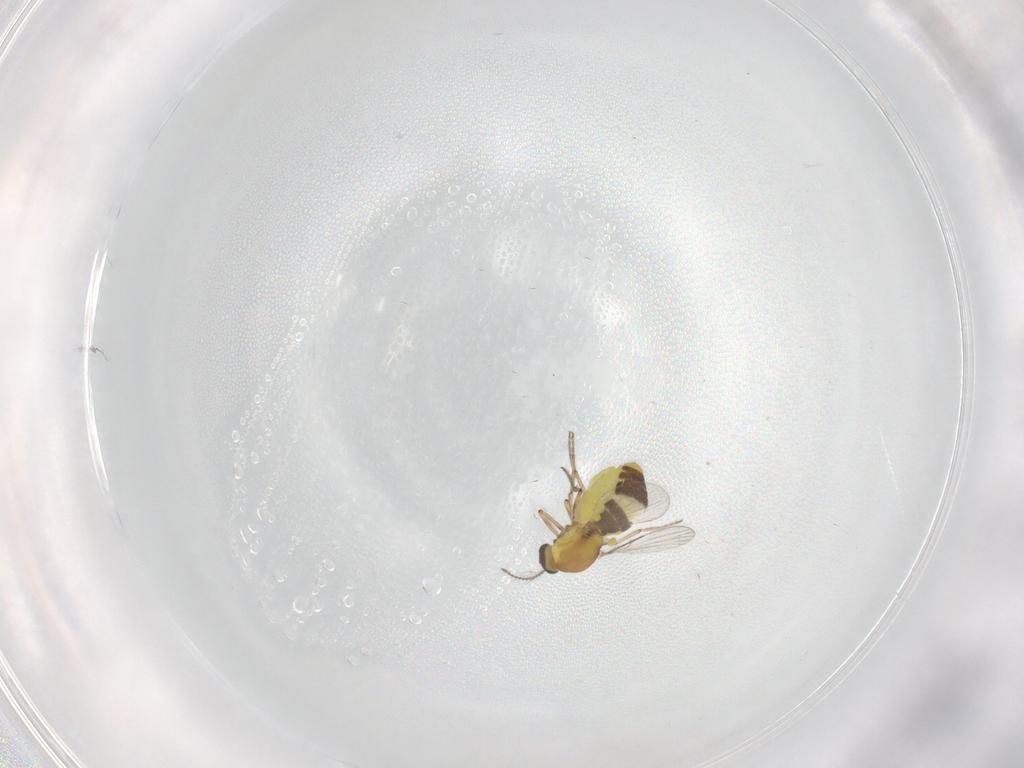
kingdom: Animalia
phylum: Arthropoda
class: Insecta
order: Diptera
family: Ceratopogonidae
